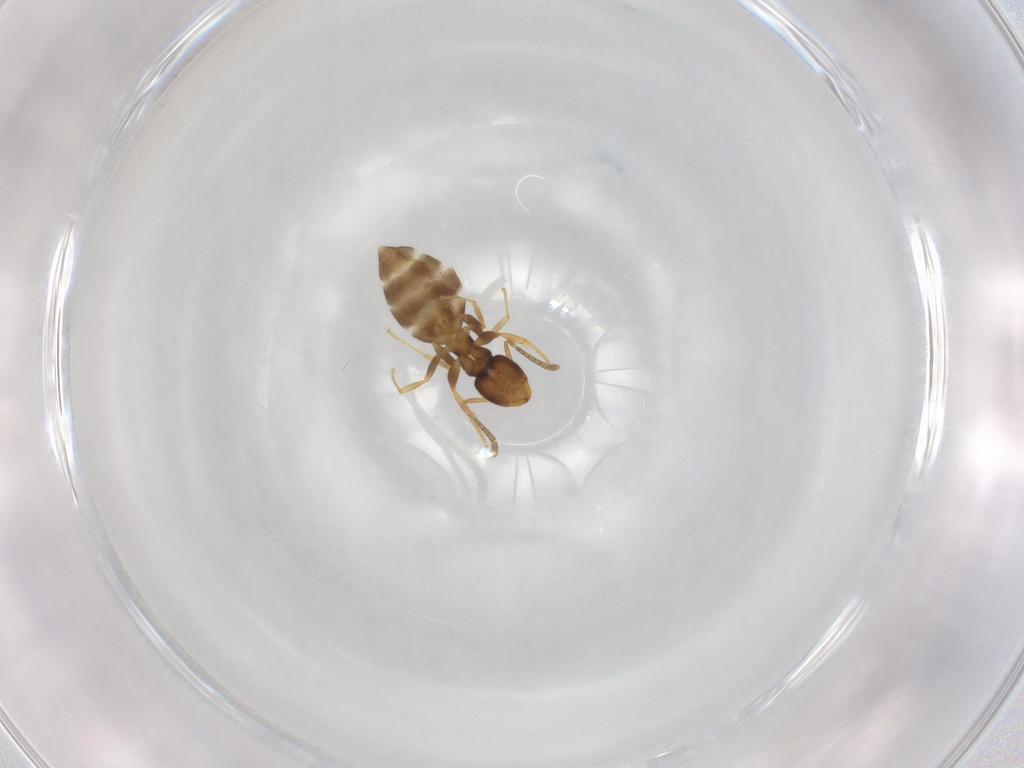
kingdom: Animalia
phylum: Arthropoda
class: Insecta
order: Hymenoptera
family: Formicidae
